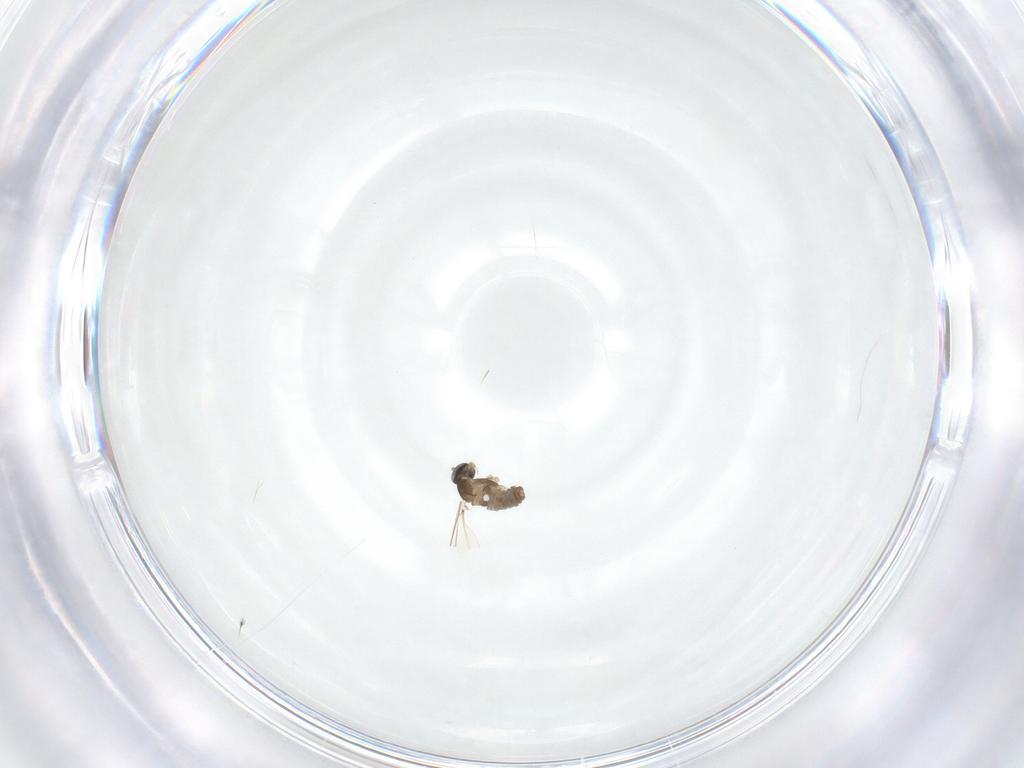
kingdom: Animalia
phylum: Arthropoda
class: Insecta
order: Diptera
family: Cecidomyiidae
